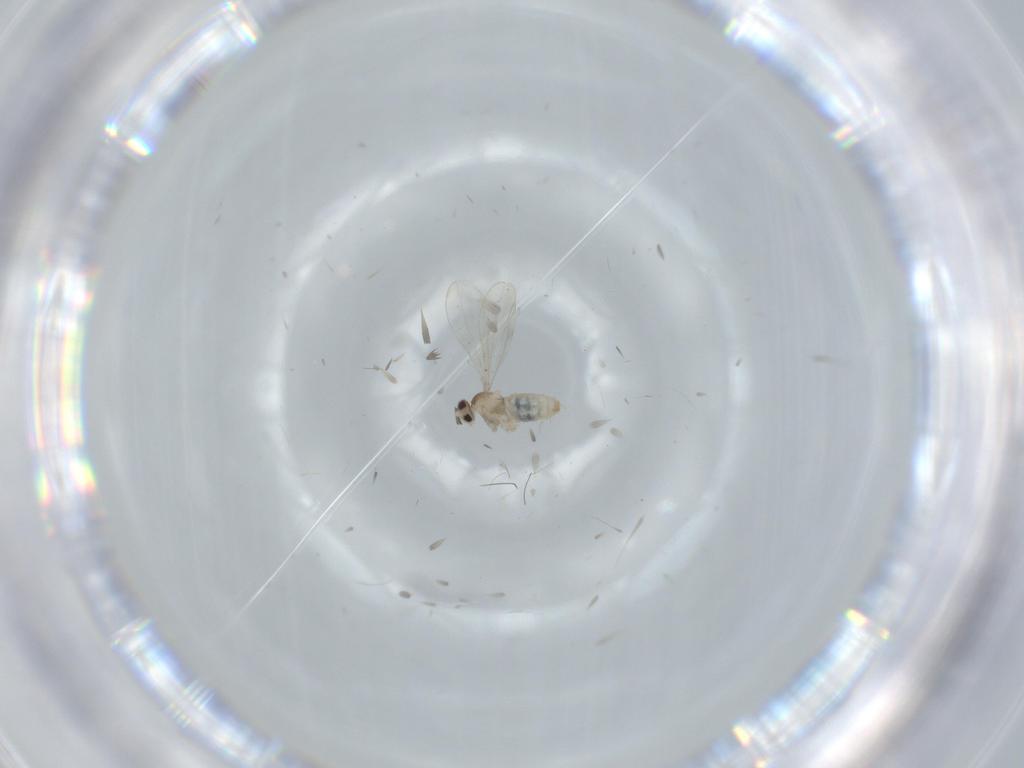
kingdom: Animalia
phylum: Arthropoda
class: Insecta
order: Diptera
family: Cecidomyiidae
